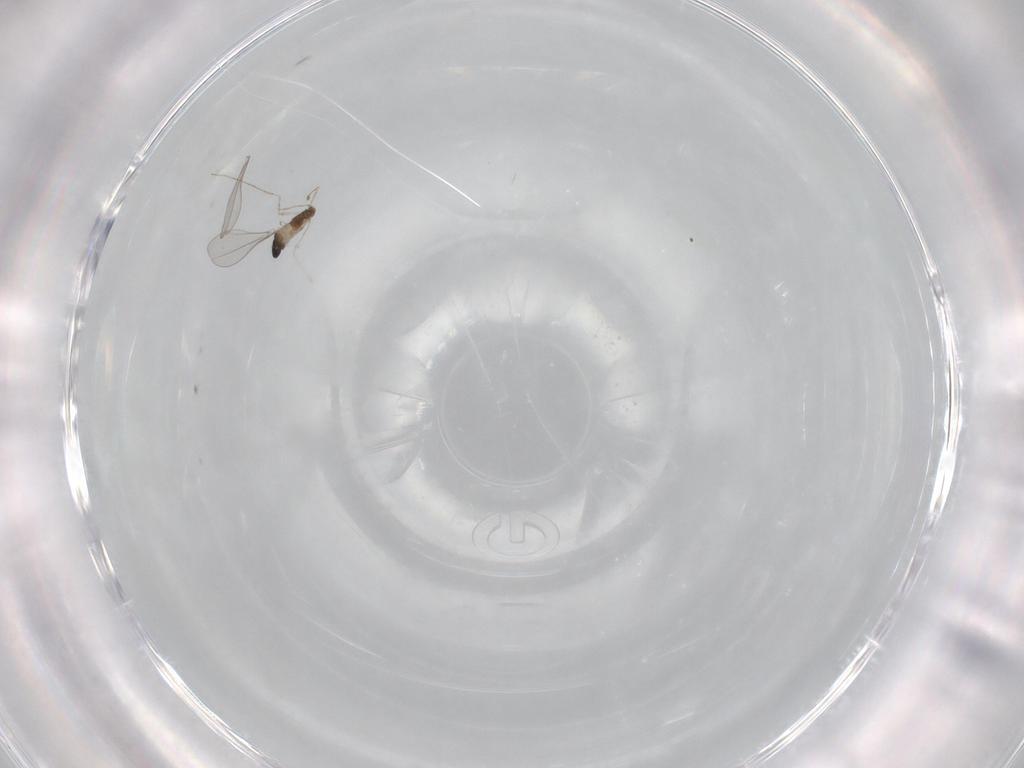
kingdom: Animalia
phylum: Arthropoda
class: Insecta
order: Diptera
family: Cecidomyiidae
